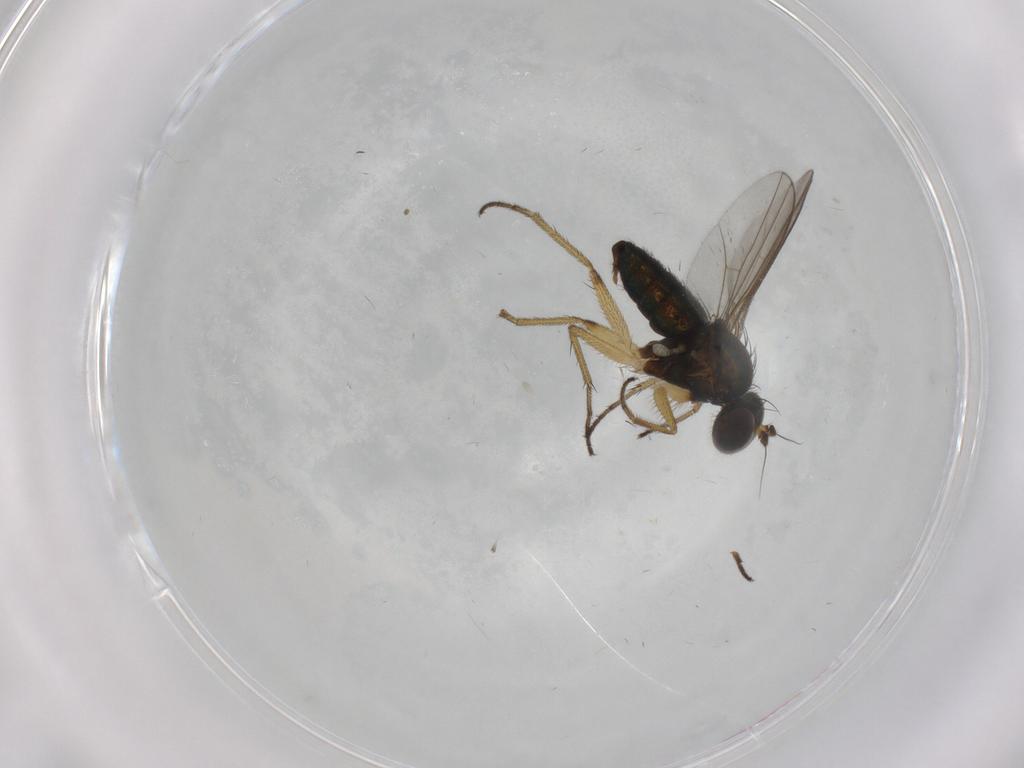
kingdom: Animalia
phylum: Arthropoda
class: Insecta
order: Diptera
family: Dolichopodidae
